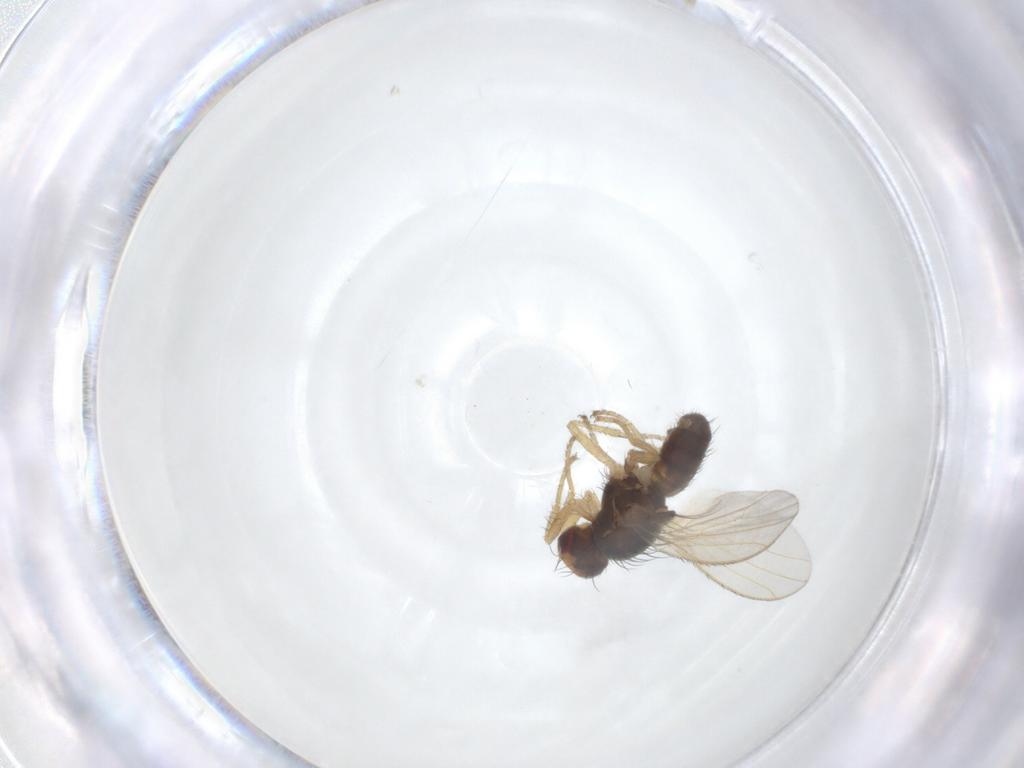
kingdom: Animalia
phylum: Arthropoda
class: Insecta
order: Diptera
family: Heleomyzidae
